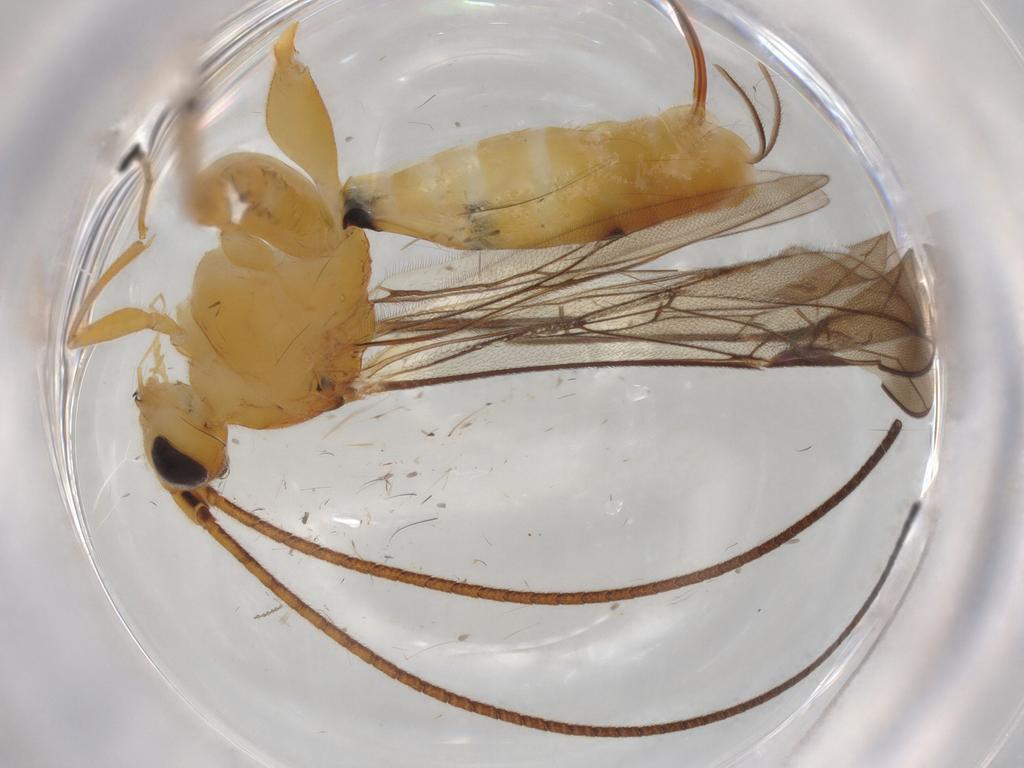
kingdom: Animalia
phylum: Arthropoda
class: Insecta
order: Hymenoptera
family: Braconidae
